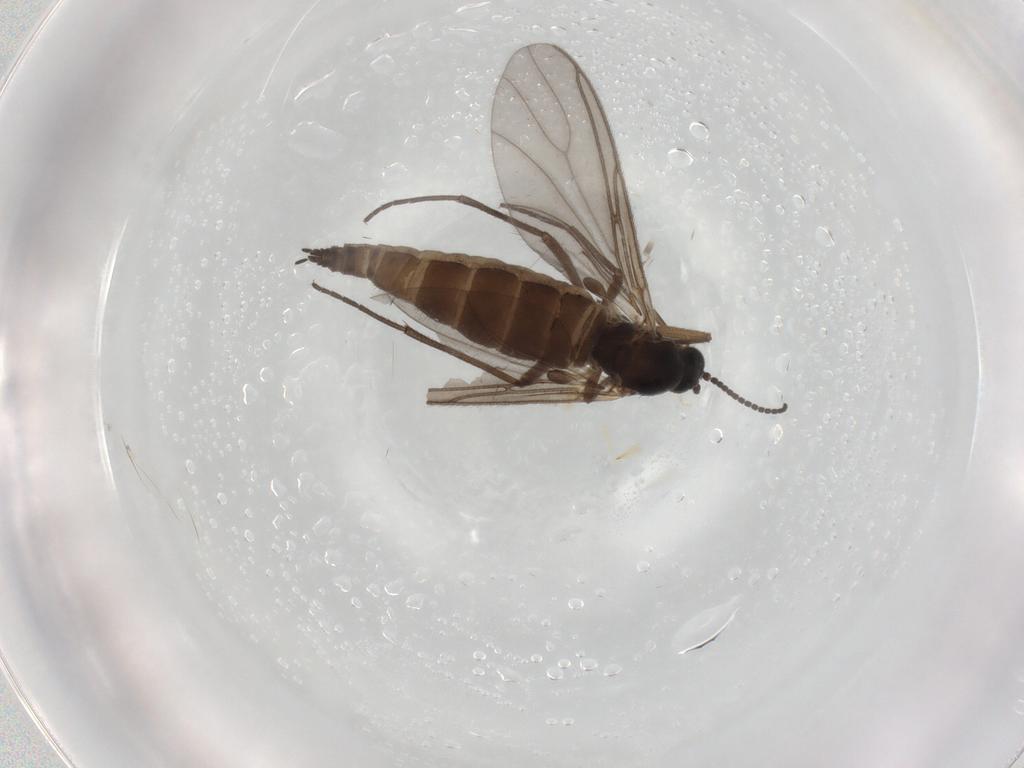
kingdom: Animalia
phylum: Arthropoda
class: Insecta
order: Diptera
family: Sciaridae
